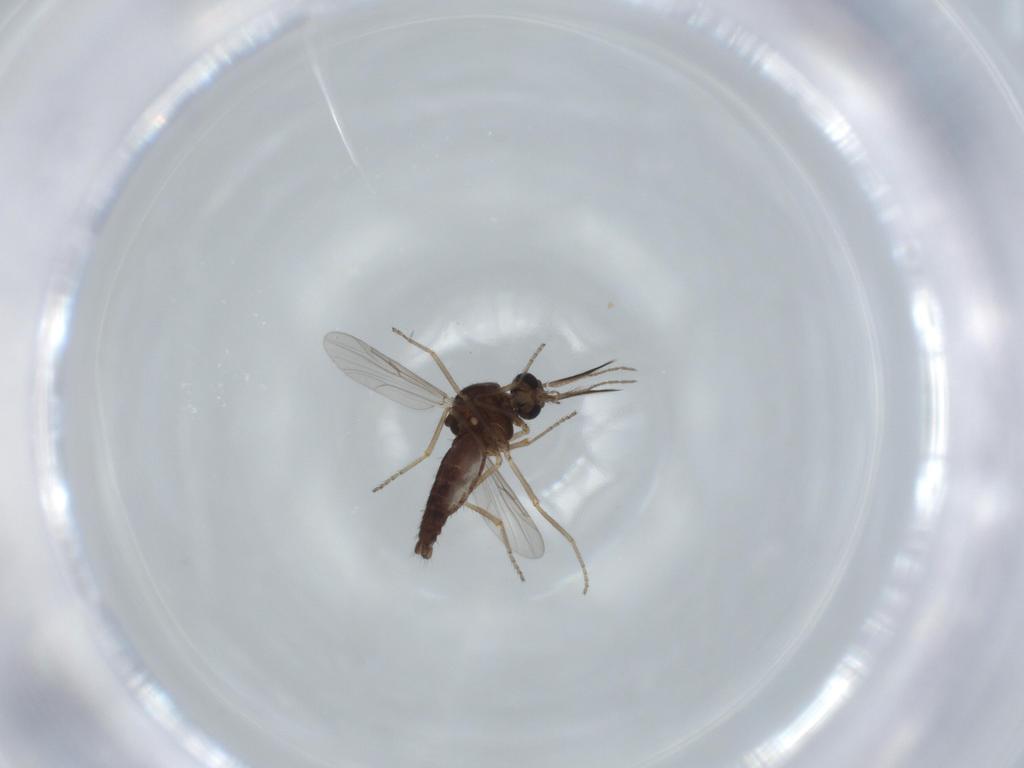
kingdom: Animalia
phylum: Arthropoda
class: Insecta
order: Diptera
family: Ceratopogonidae
